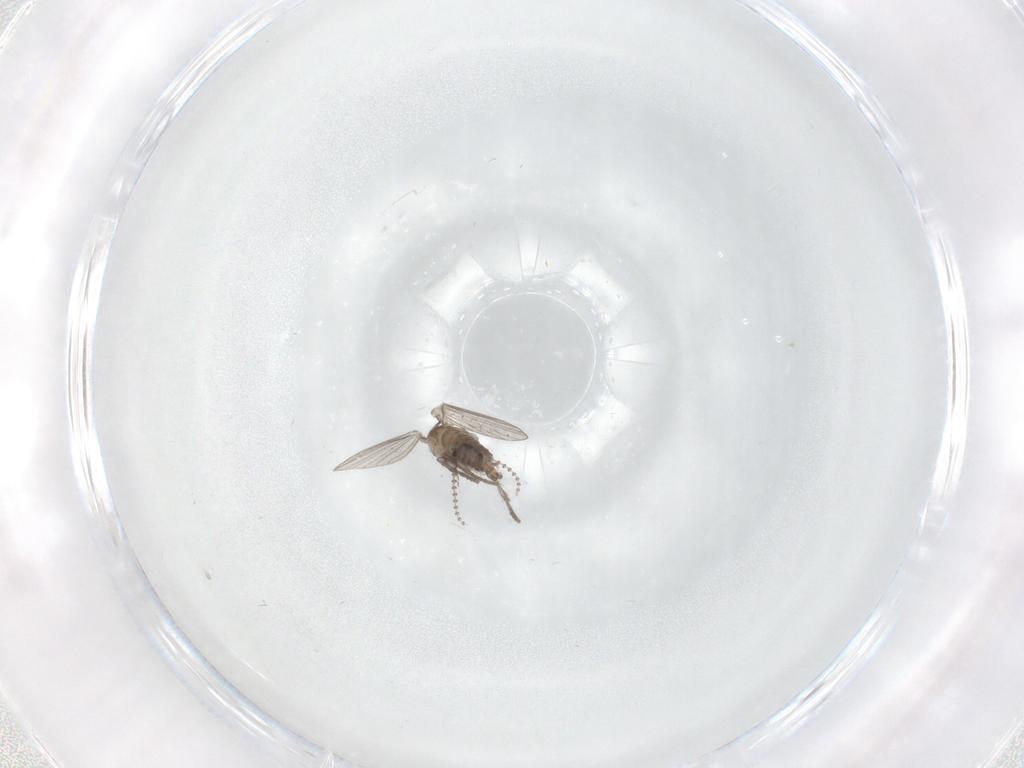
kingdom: Animalia
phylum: Arthropoda
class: Insecta
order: Diptera
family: Psychodidae
